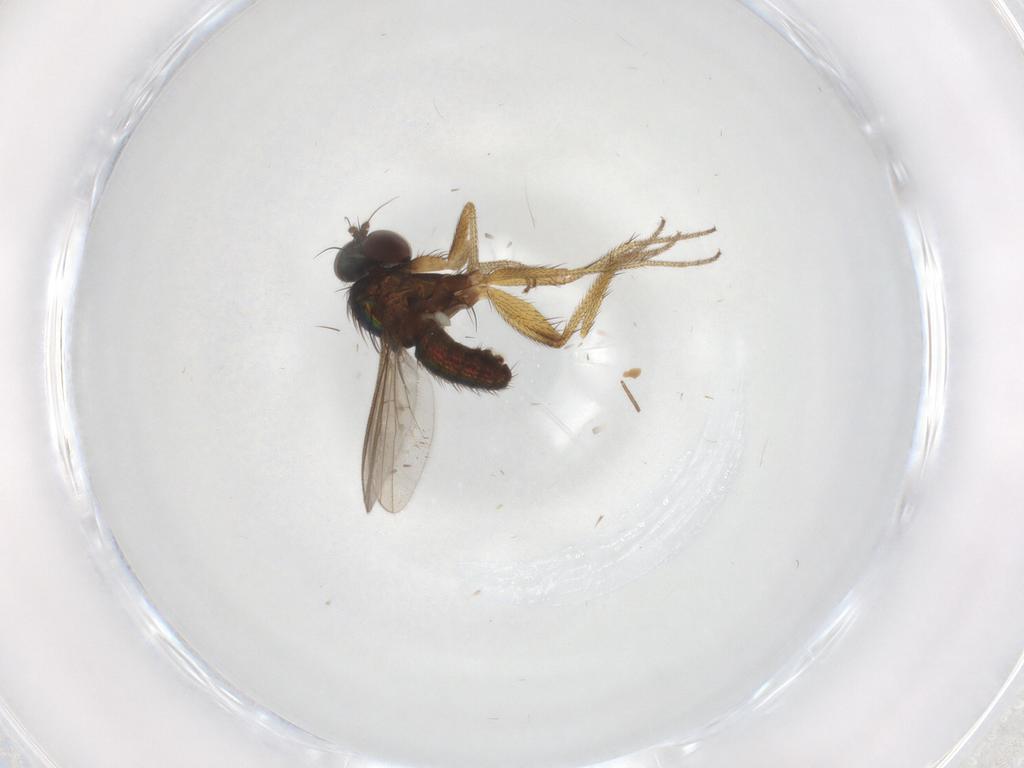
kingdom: Animalia
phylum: Arthropoda
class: Insecta
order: Diptera
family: Dolichopodidae
